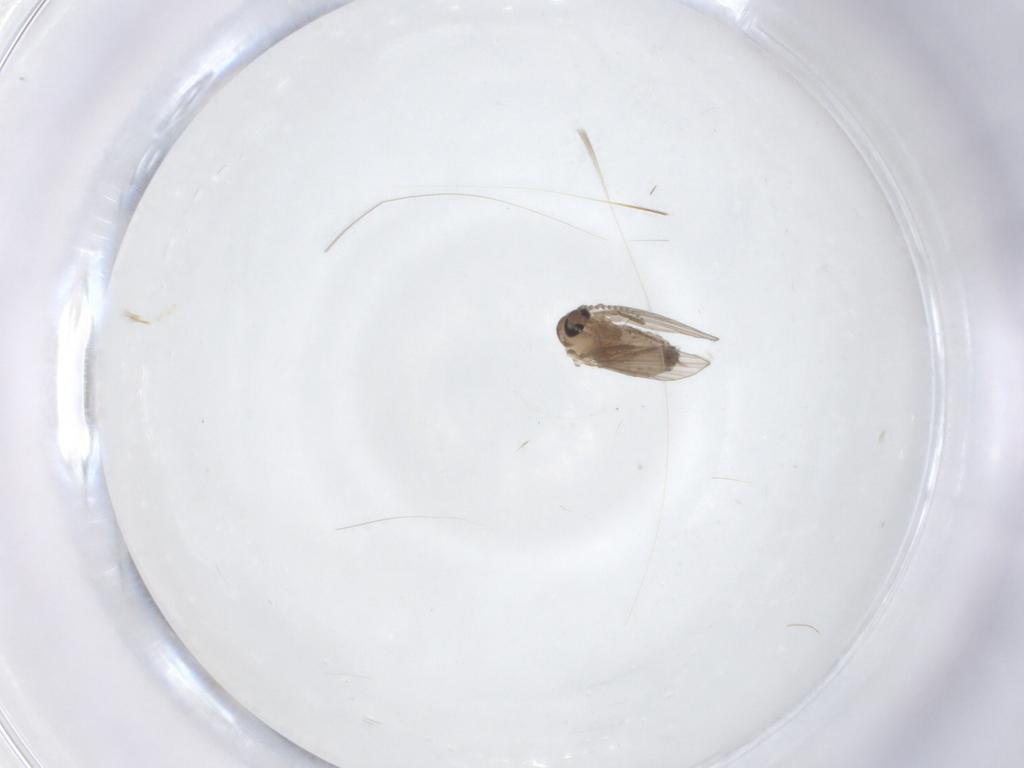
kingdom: Animalia
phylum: Arthropoda
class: Insecta
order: Diptera
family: Psychodidae
